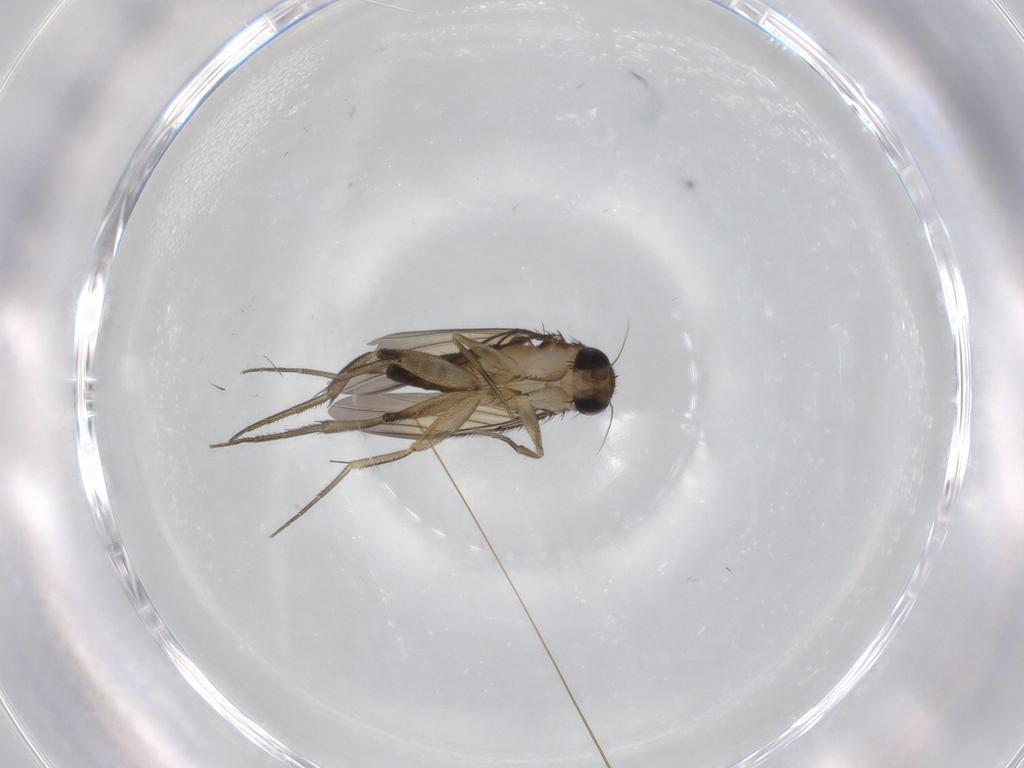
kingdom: Animalia
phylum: Arthropoda
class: Insecta
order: Diptera
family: Phoridae
